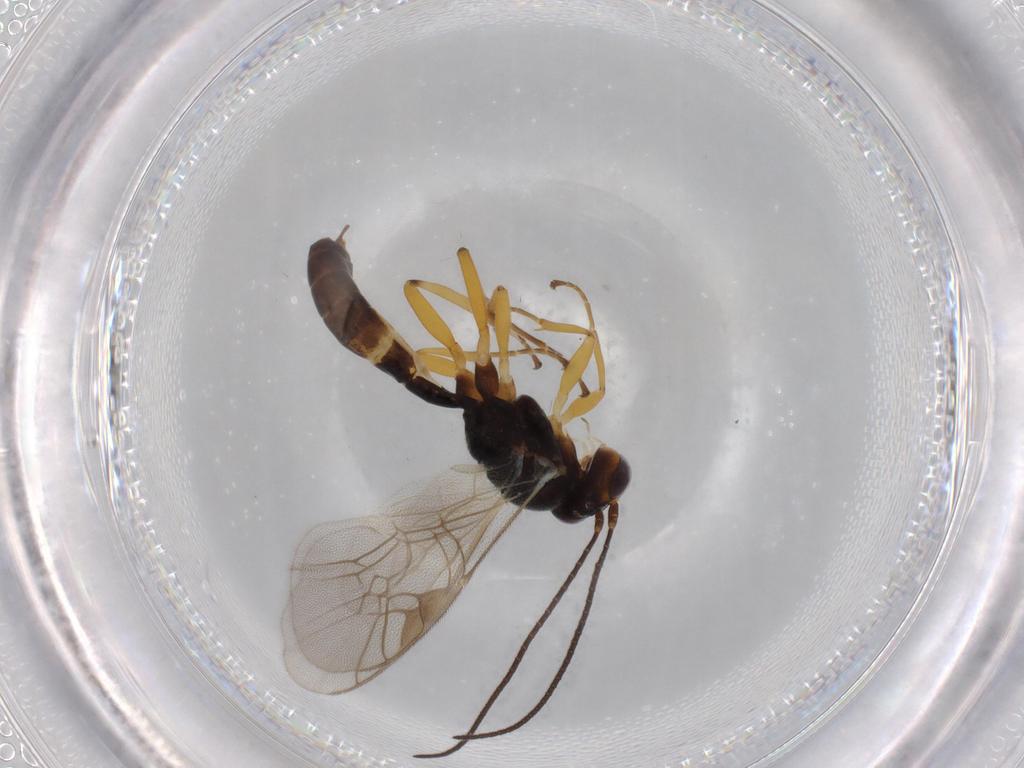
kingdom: Animalia
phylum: Arthropoda
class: Insecta
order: Hymenoptera
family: Ichneumonidae
